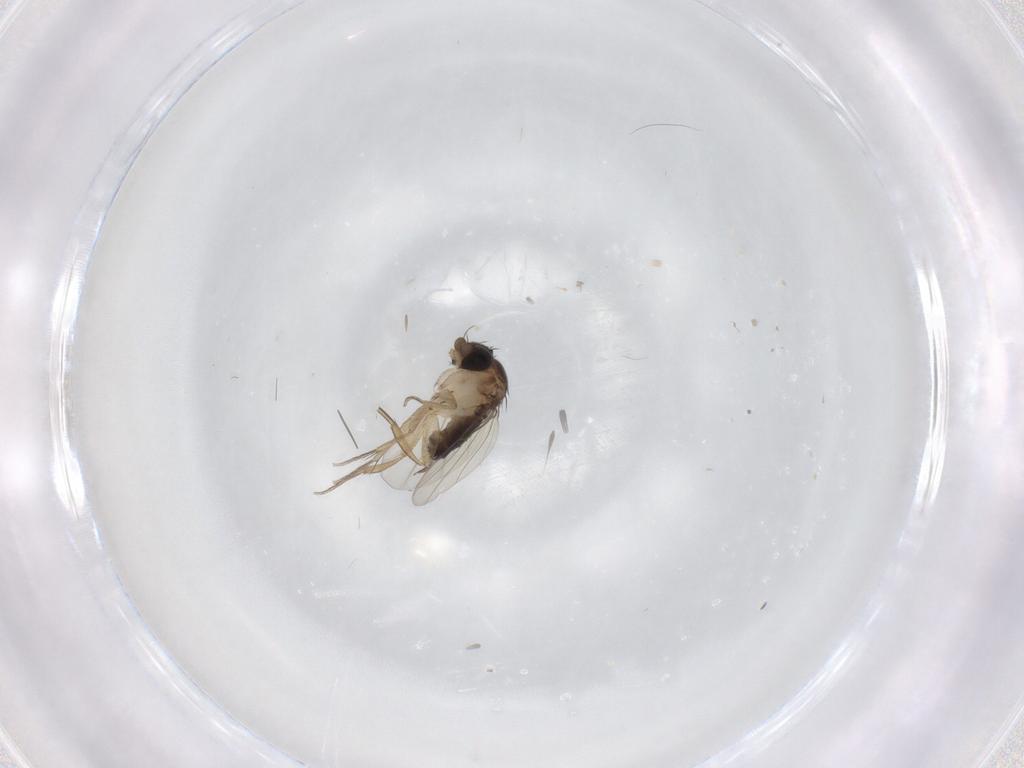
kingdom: Animalia
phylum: Arthropoda
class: Insecta
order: Diptera
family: Phoridae
